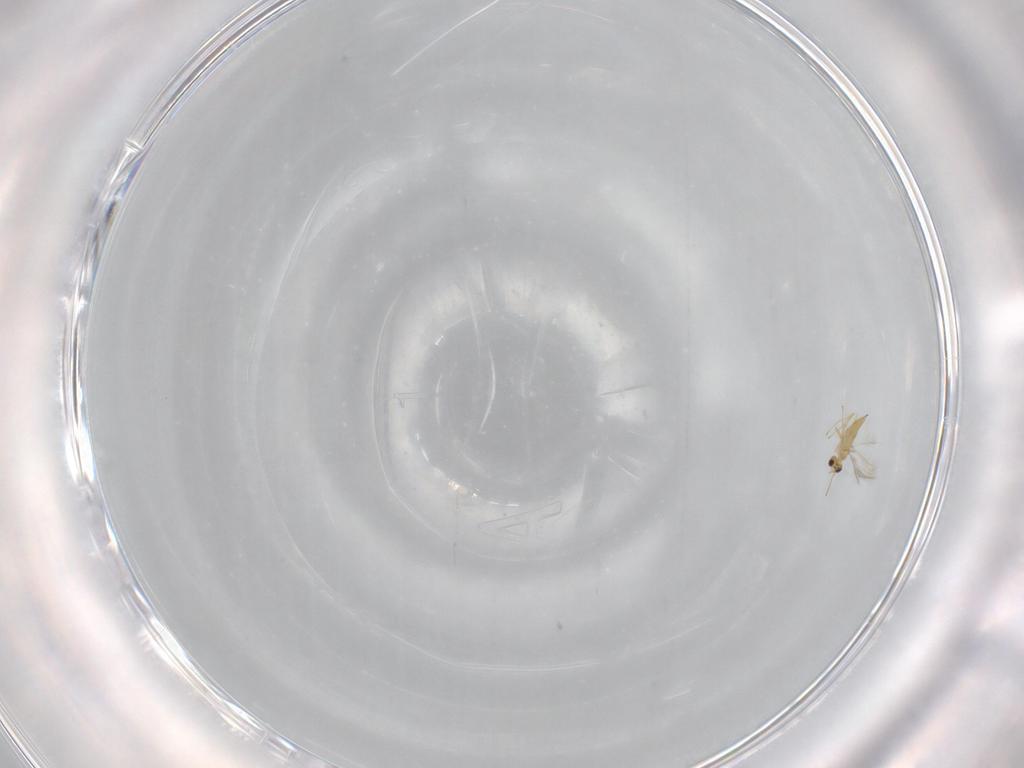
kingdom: Animalia
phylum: Arthropoda
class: Insecta
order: Hymenoptera
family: Mymaridae
